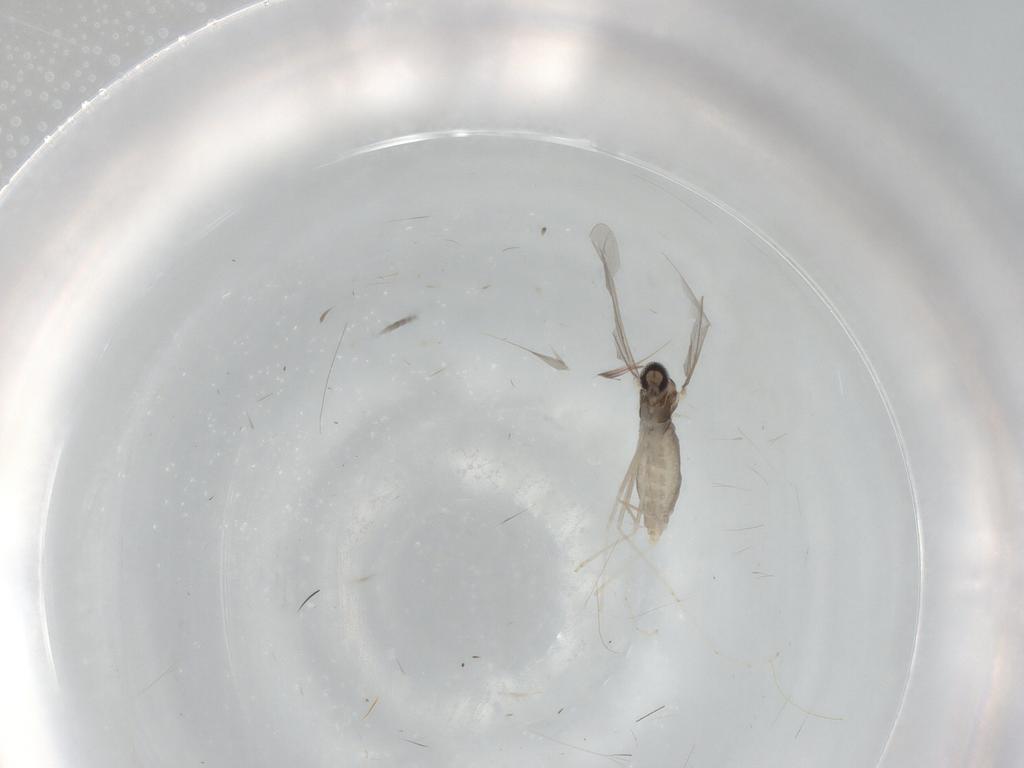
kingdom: Animalia
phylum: Arthropoda
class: Insecta
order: Diptera
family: Cecidomyiidae
